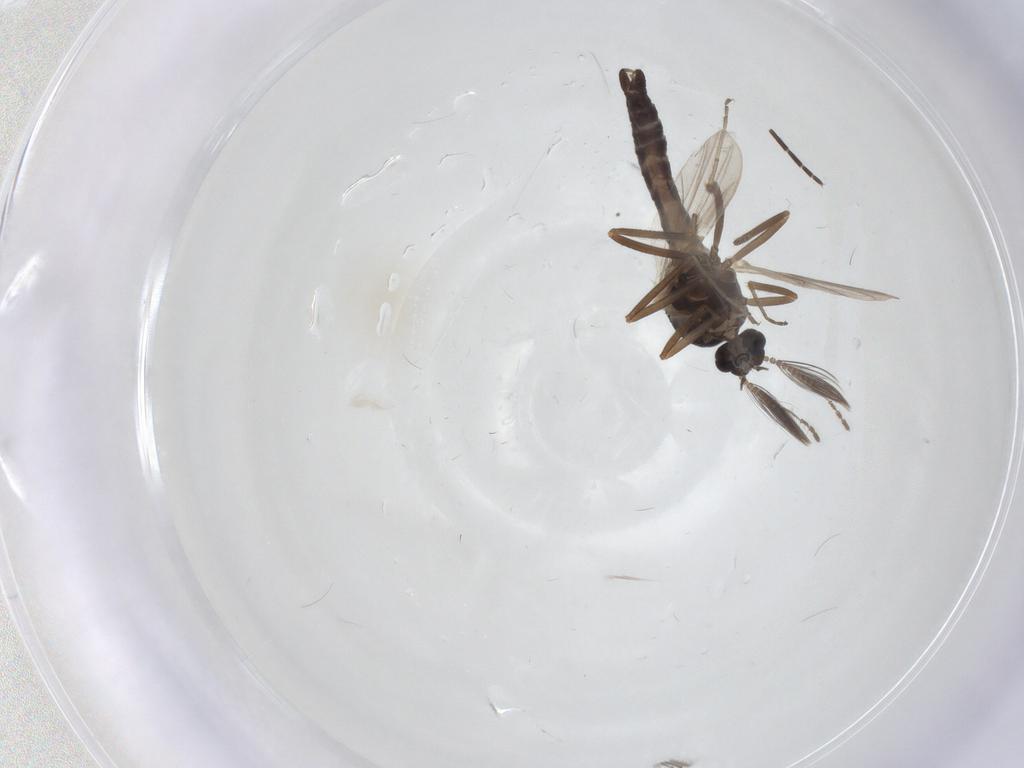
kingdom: Animalia
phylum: Arthropoda
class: Insecta
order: Diptera
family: Ceratopogonidae
